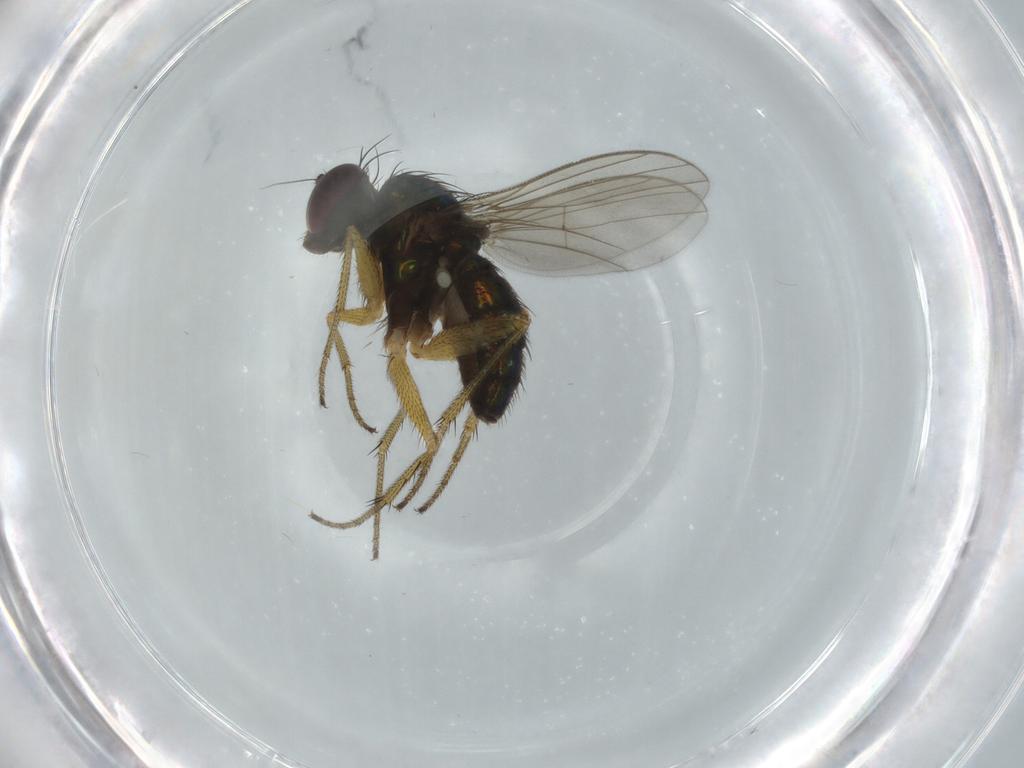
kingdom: Animalia
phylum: Arthropoda
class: Insecta
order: Diptera
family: Dolichopodidae
